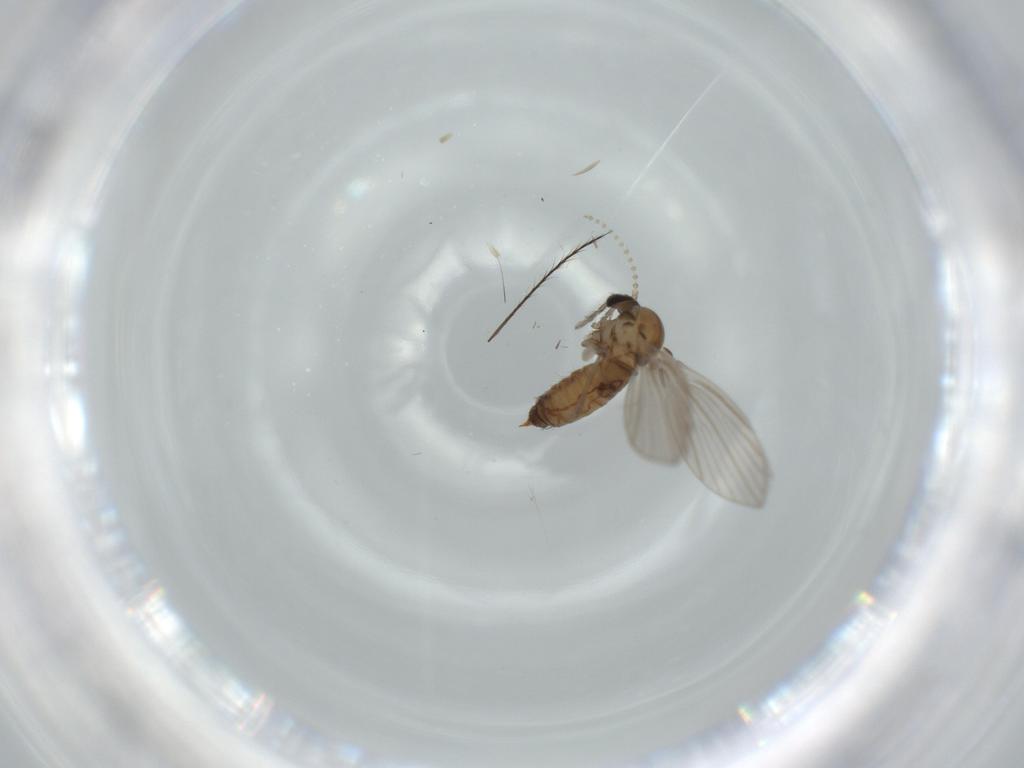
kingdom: Animalia
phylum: Arthropoda
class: Insecta
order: Diptera
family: Psychodidae
